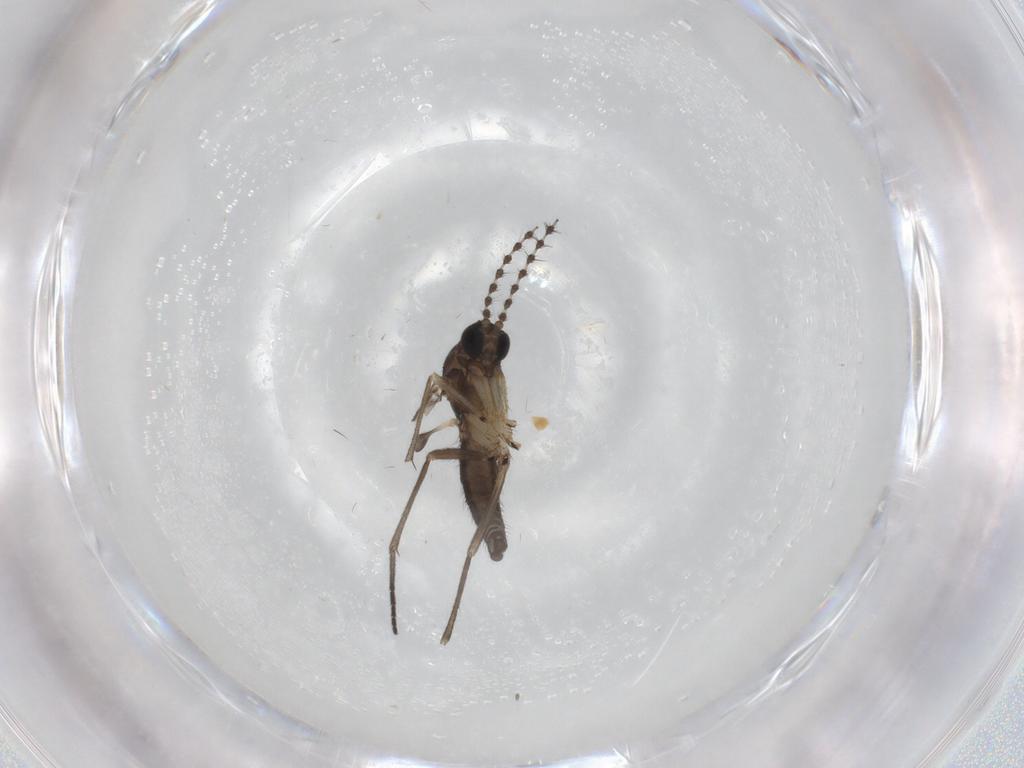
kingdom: Animalia
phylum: Arthropoda
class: Insecta
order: Diptera
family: Sciaridae
